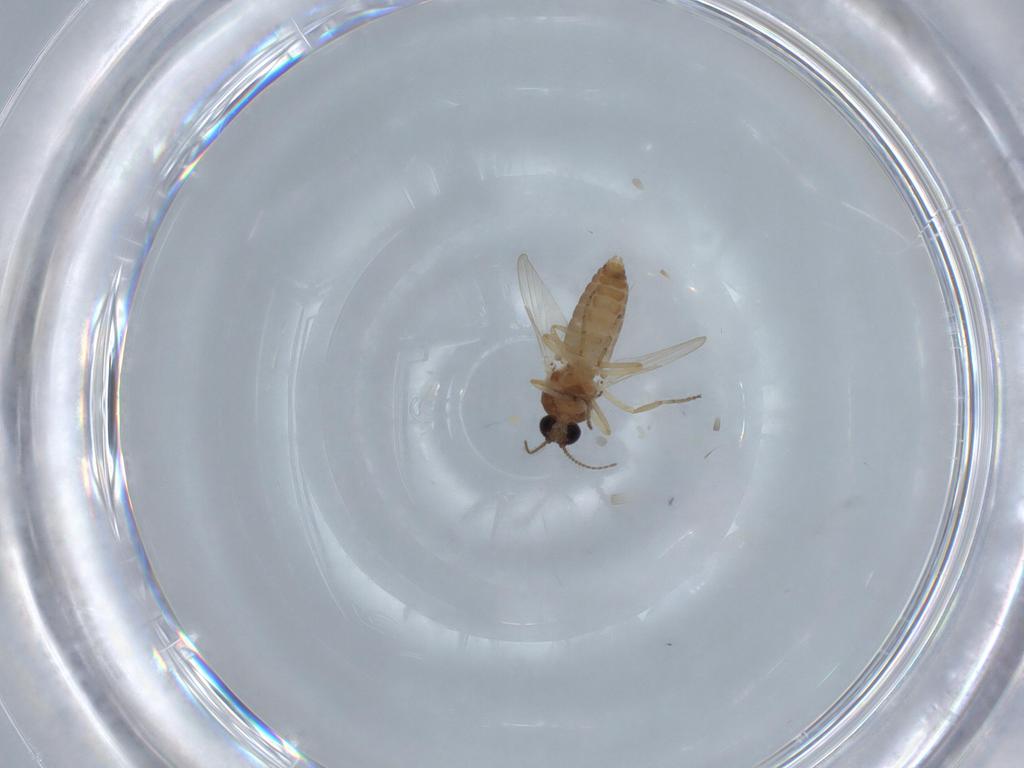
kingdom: Animalia
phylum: Arthropoda
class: Insecta
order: Diptera
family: Ceratopogonidae
